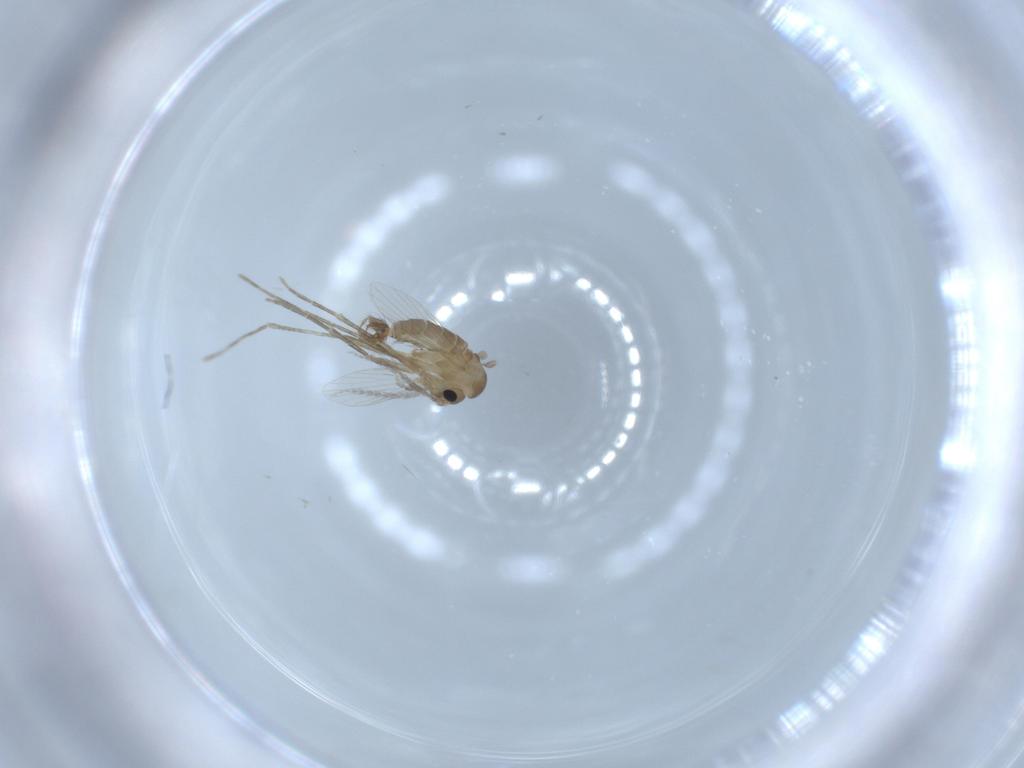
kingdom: Animalia
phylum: Arthropoda
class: Insecta
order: Diptera
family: Psychodidae
